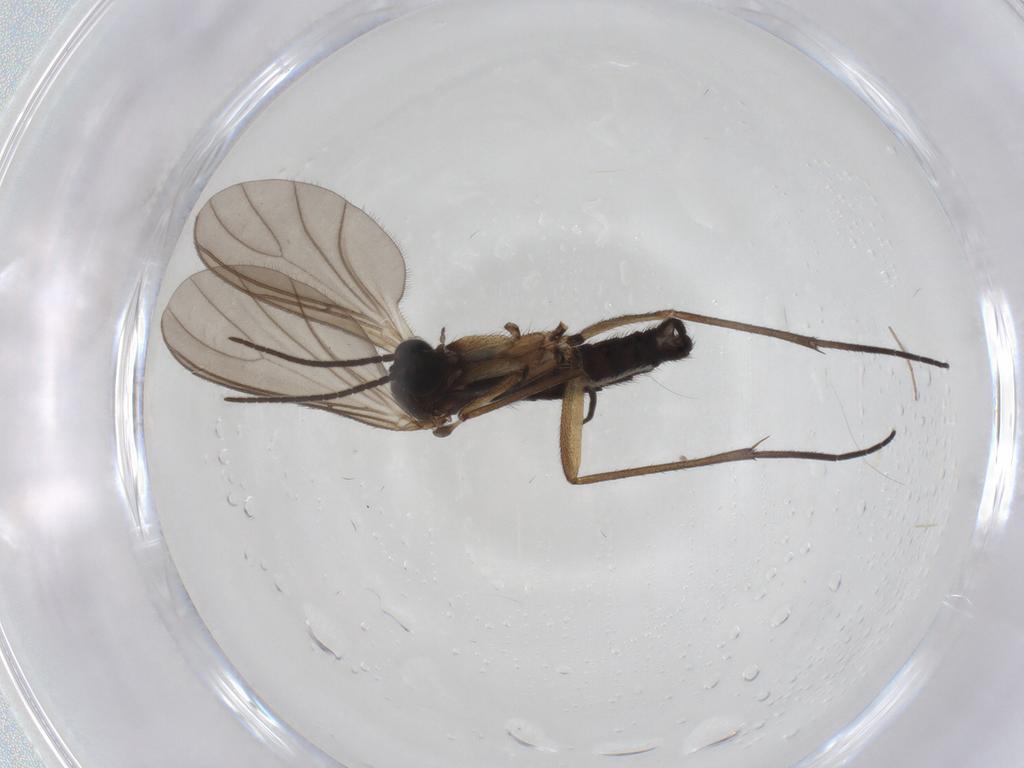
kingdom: Animalia
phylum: Arthropoda
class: Insecta
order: Diptera
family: Sciaridae
